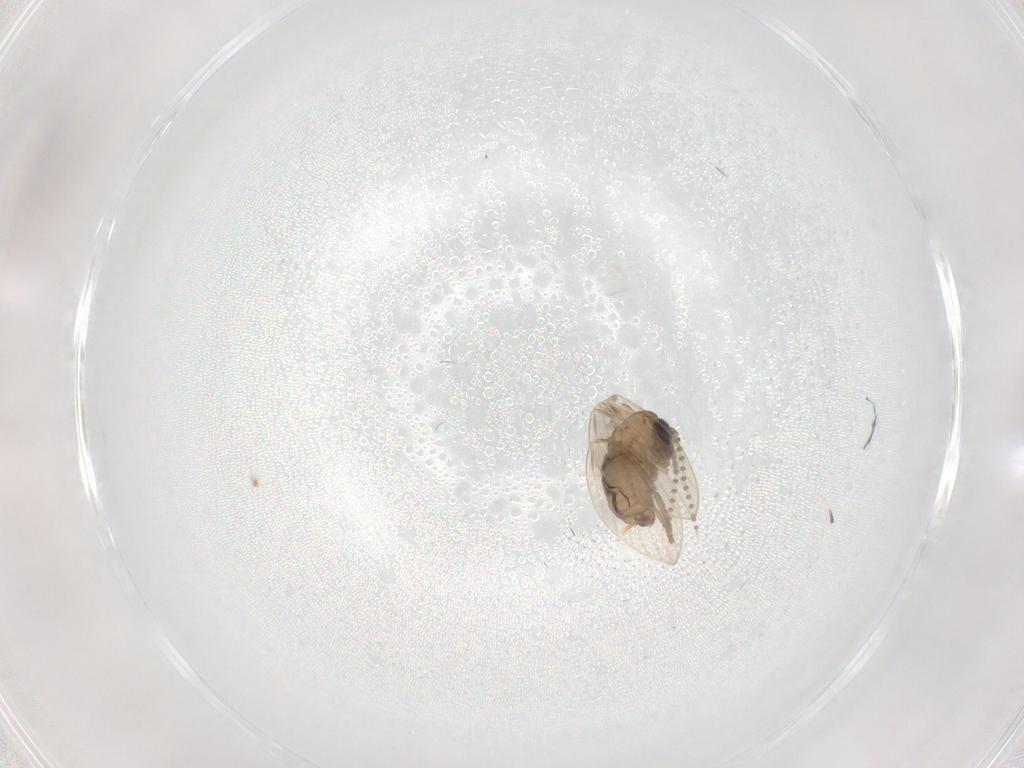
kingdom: Animalia
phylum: Arthropoda
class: Insecta
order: Diptera
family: Psychodidae
